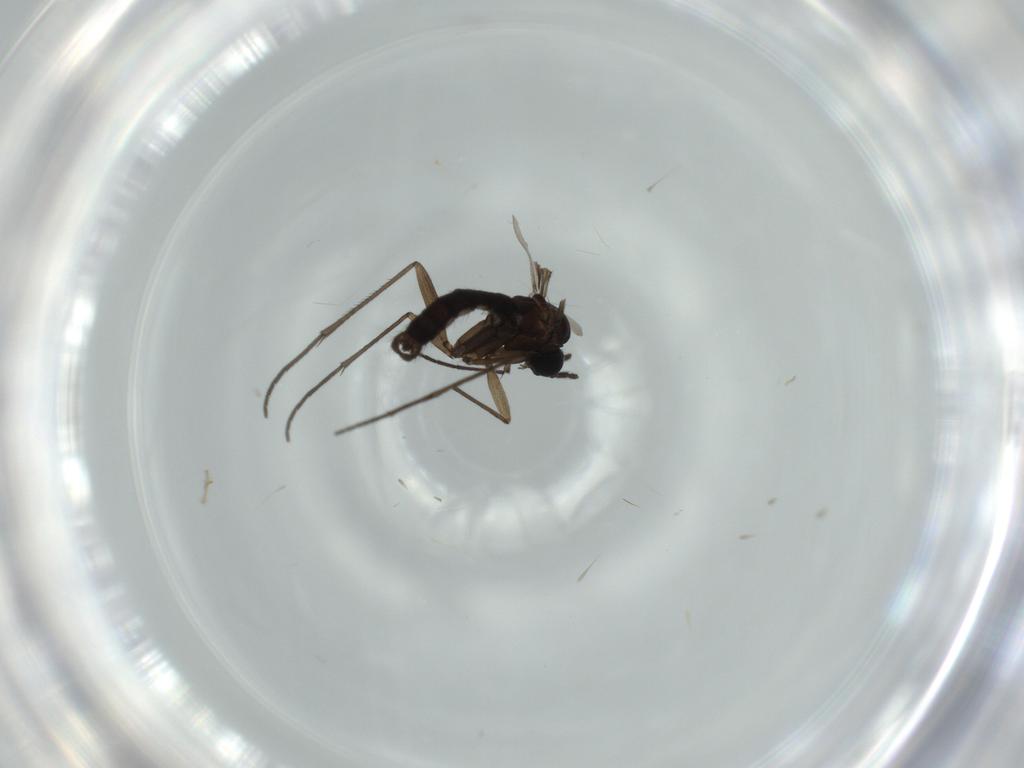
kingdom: Animalia
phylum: Arthropoda
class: Insecta
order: Diptera
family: Sciaridae
